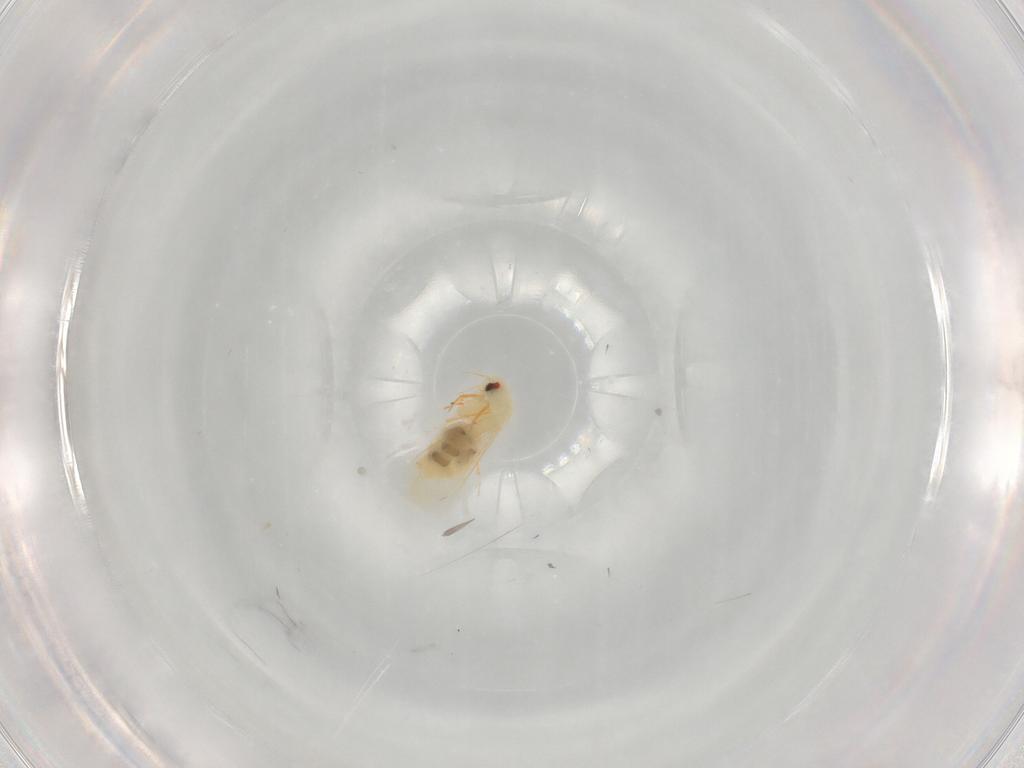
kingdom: Animalia
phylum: Arthropoda
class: Insecta
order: Hemiptera
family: Aleyrodidae
